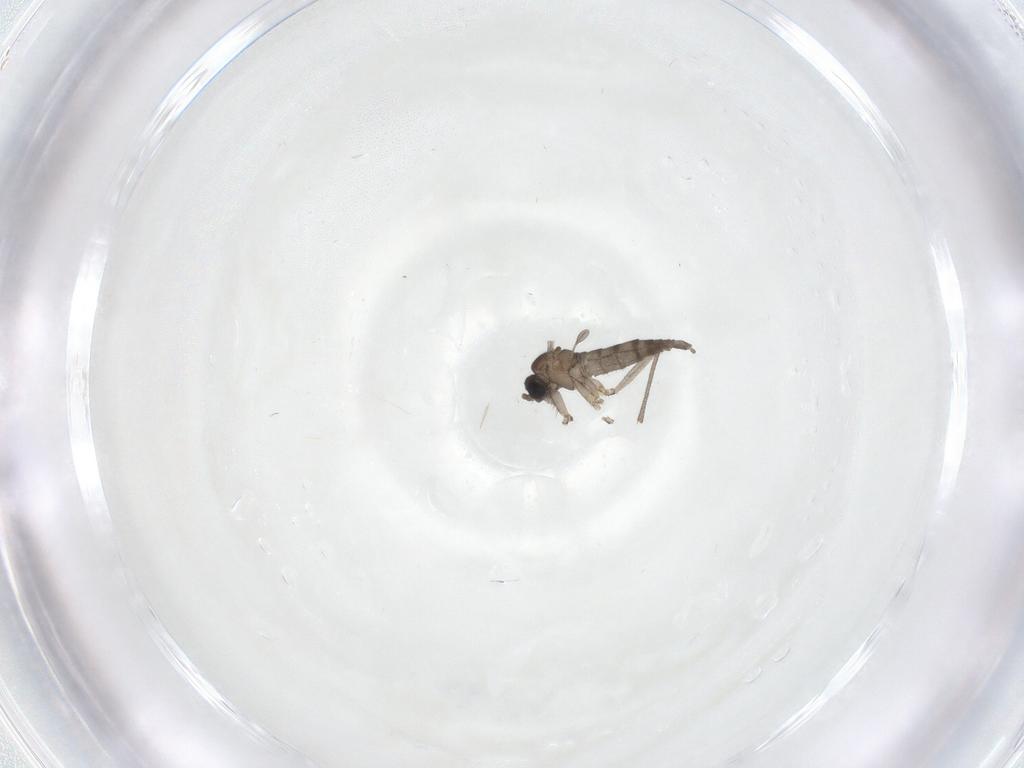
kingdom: Animalia
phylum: Arthropoda
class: Insecta
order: Diptera
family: Sciaridae
